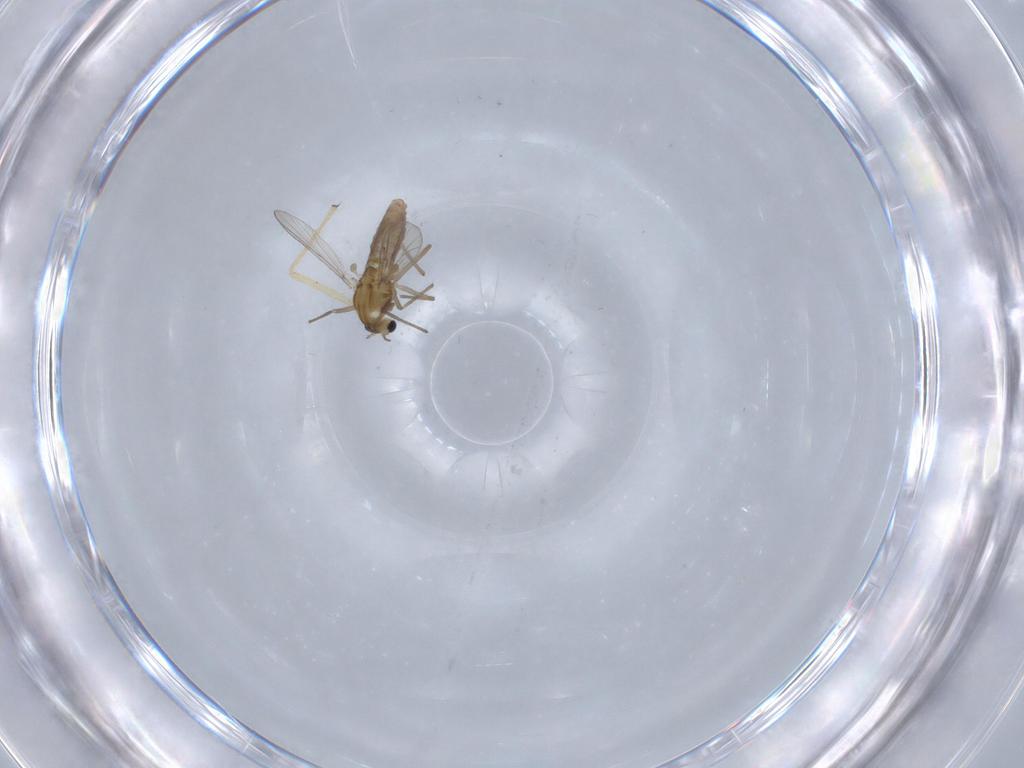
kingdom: Animalia
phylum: Arthropoda
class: Insecta
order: Diptera
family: Chironomidae
